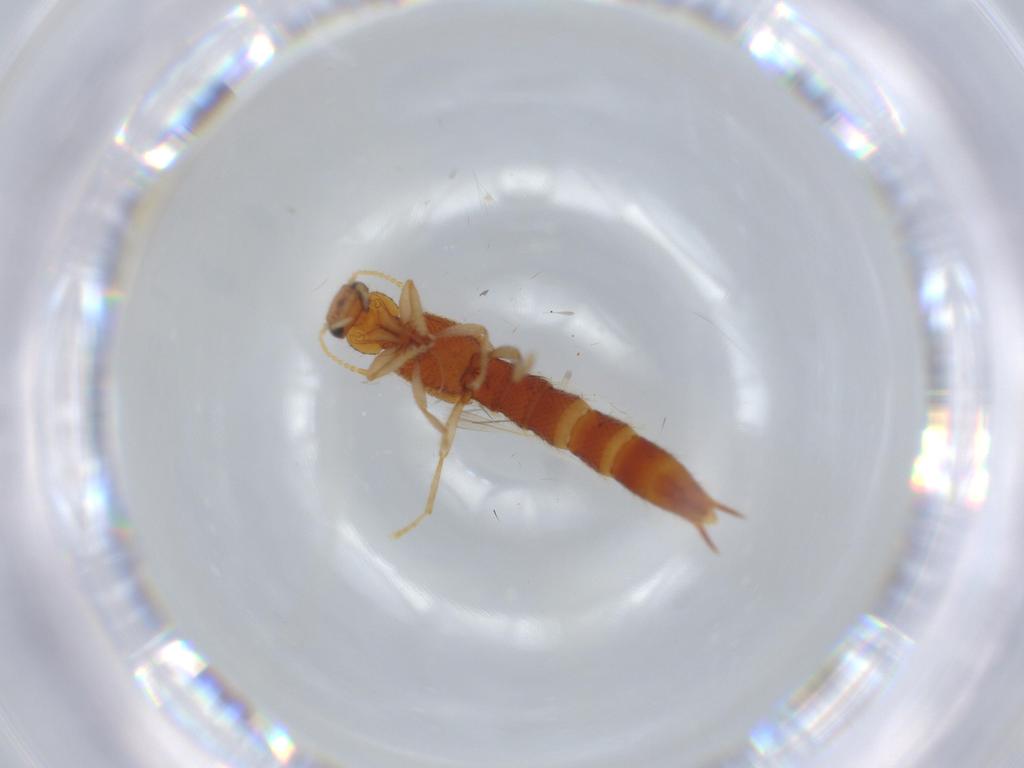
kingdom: Animalia
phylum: Arthropoda
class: Insecta
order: Coleoptera
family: Staphylinidae
